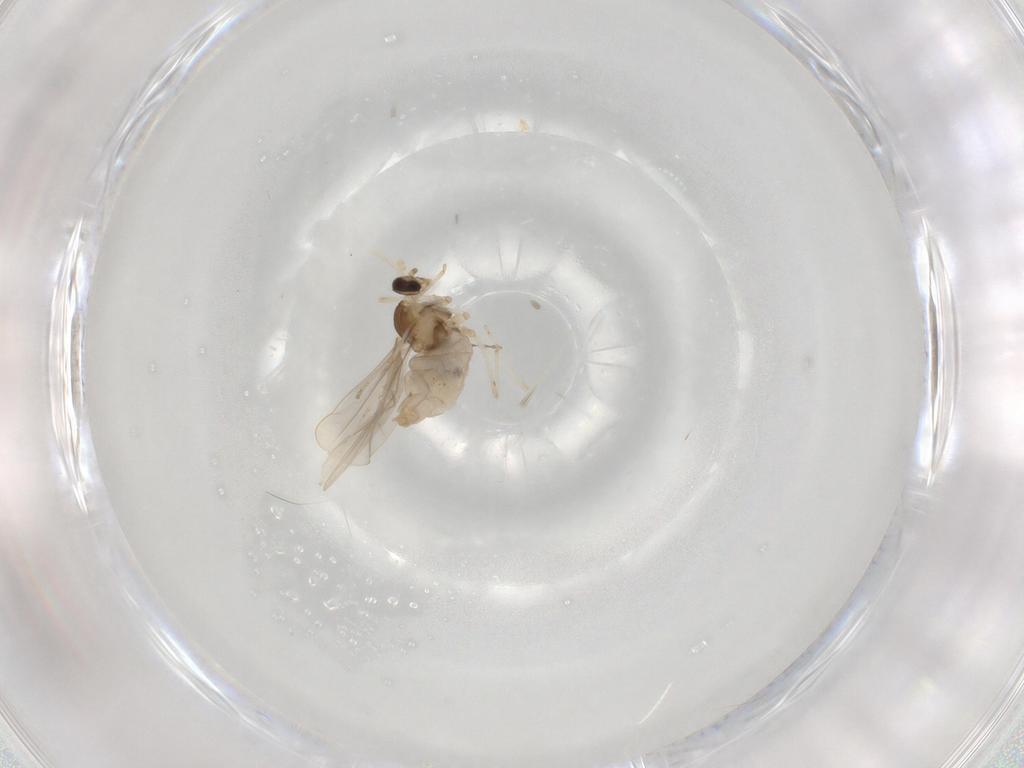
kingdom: Animalia
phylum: Arthropoda
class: Insecta
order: Diptera
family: Cecidomyiidae
